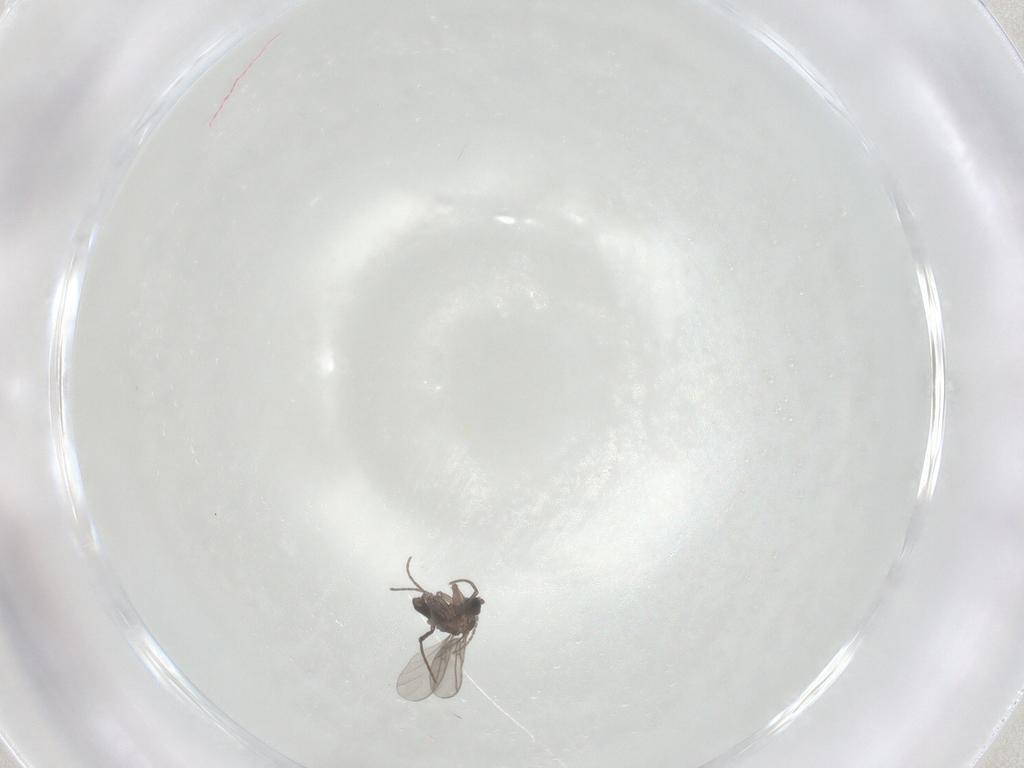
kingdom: Animalia
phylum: Arthropoda
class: Insecta
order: Diptera
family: Sciaridae
